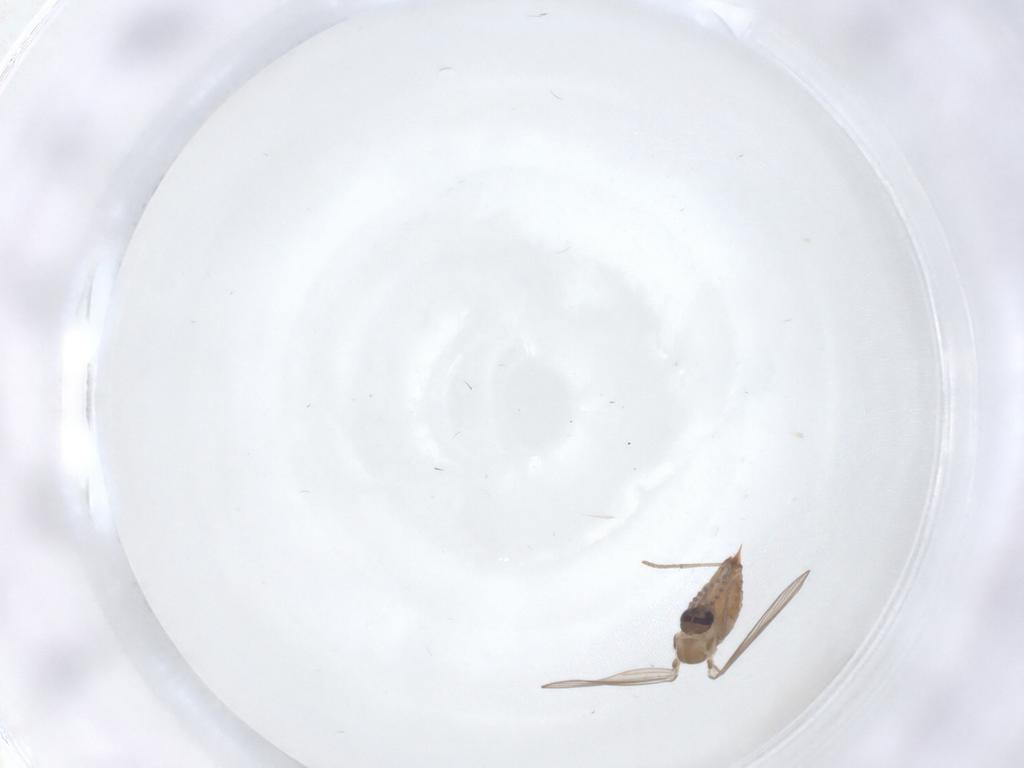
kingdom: Animalia
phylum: Arthropoda
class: Insecta
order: Diptera
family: Psychodidae
